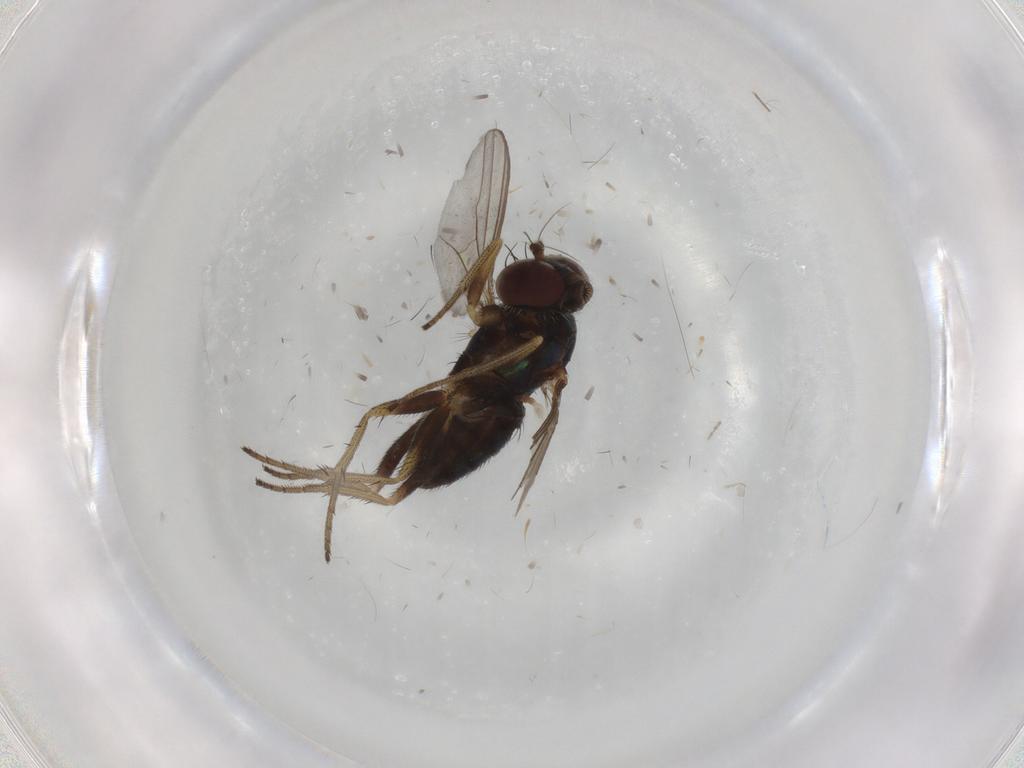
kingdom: Animalia
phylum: Arthropoda
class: Insecta
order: Diptera
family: Dolichopodidae
